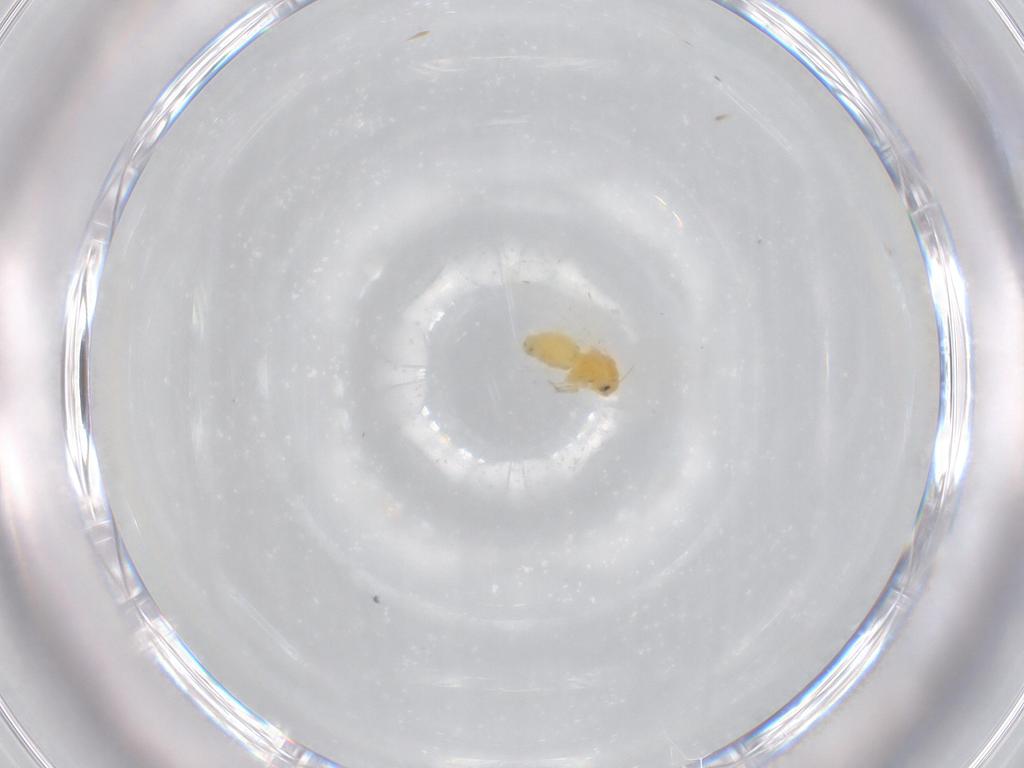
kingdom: Animalia
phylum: Arthropoda
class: Insecta
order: Hemiptera
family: Aleyrodidae
